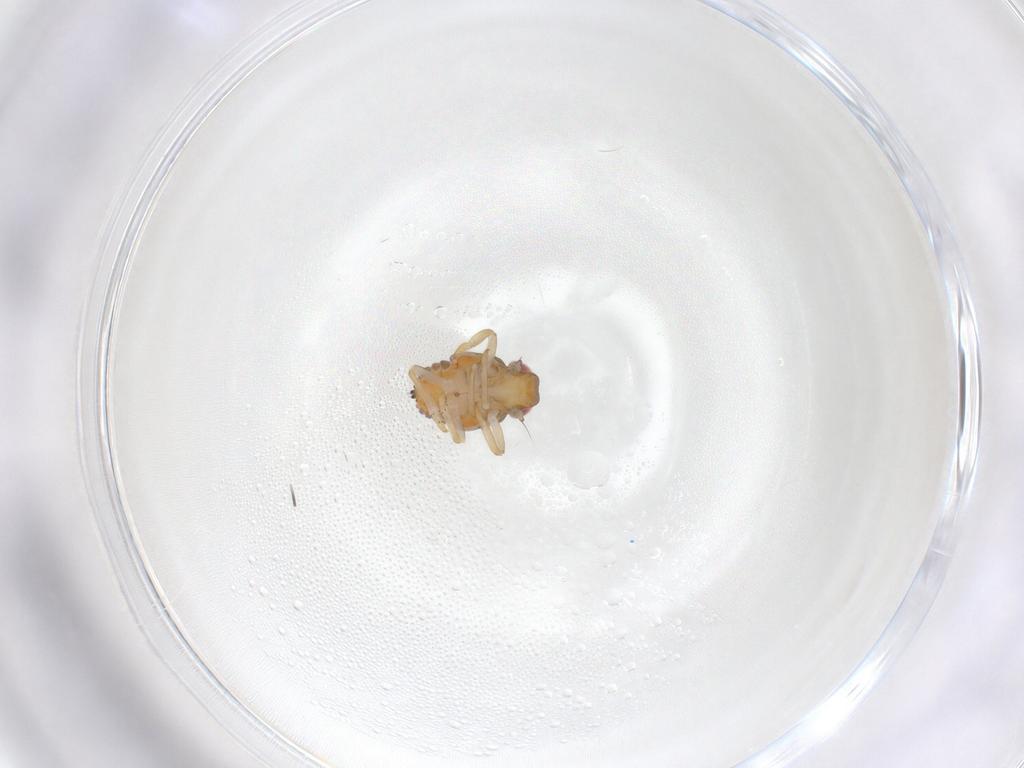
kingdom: Animalia
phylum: Arthropoda
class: Insecta
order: Hemiptera
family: Issidae
